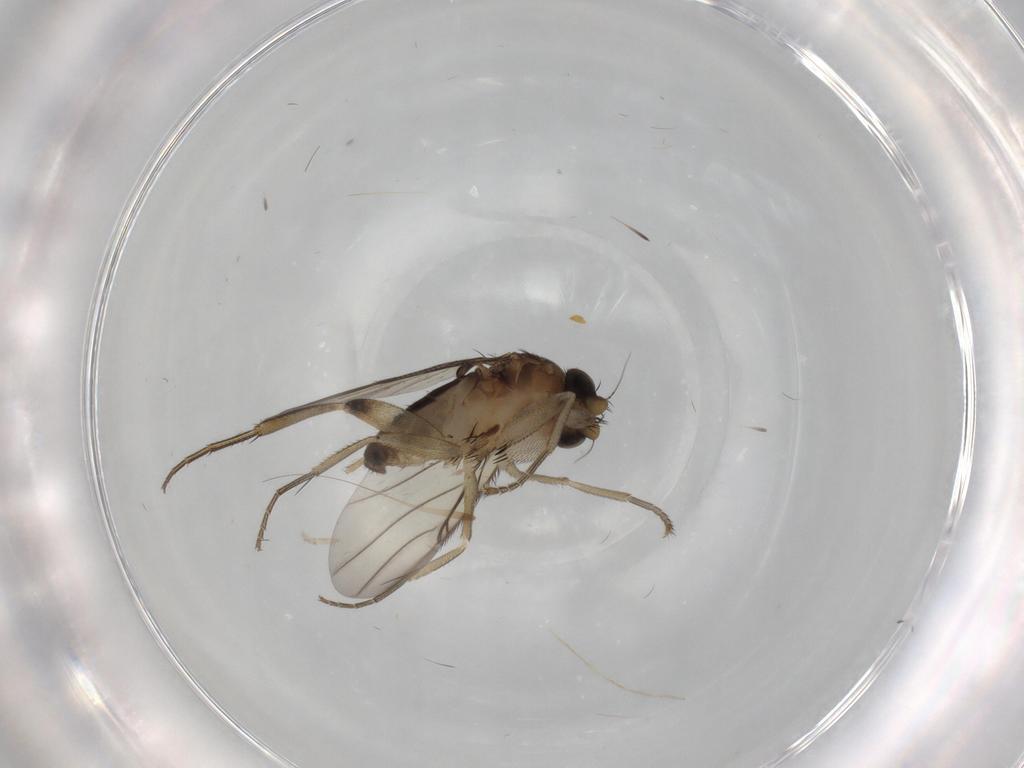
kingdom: Animalia
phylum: Arthropoda
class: Insecta
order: Diptera
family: Phoridae
